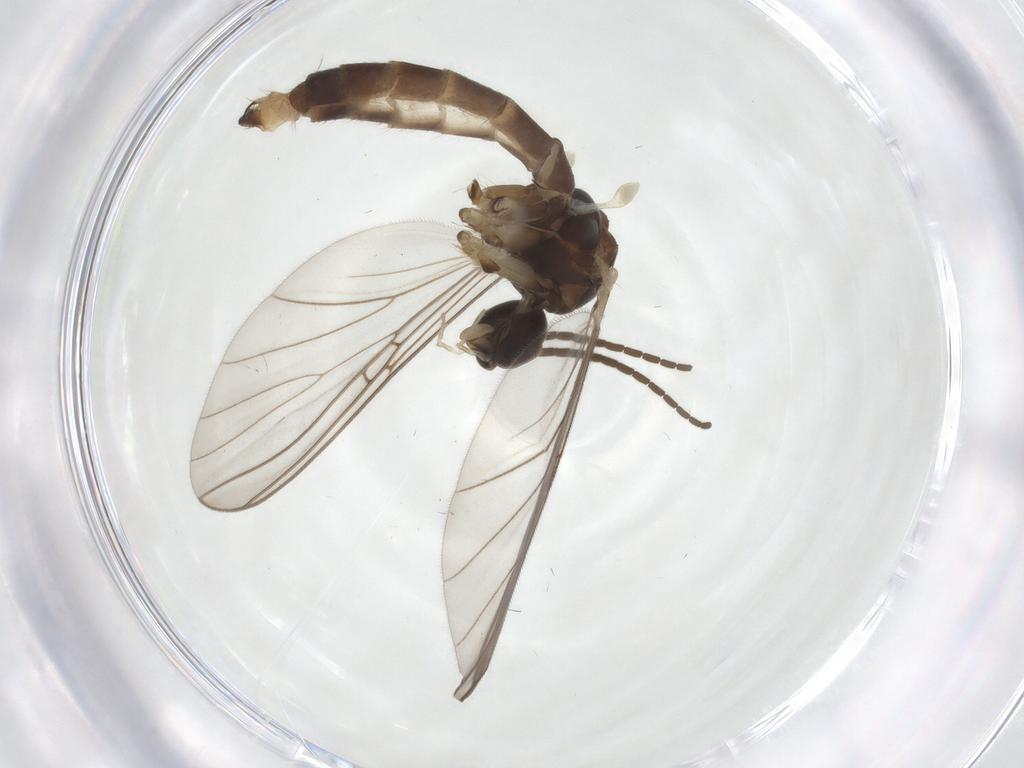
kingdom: Animalia
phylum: Arthropoda
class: Insecta
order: Diptera
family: Mycetophilidae
